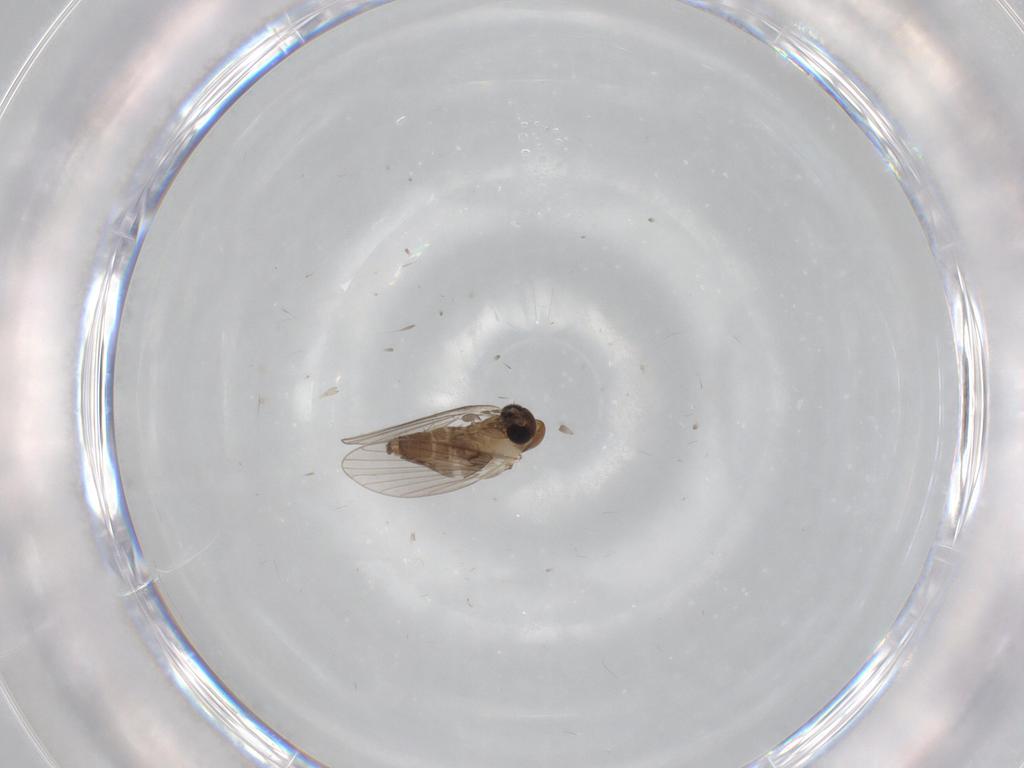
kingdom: Animalia
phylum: Arthropoda
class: Insecta
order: Diptera
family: Psychodidae
